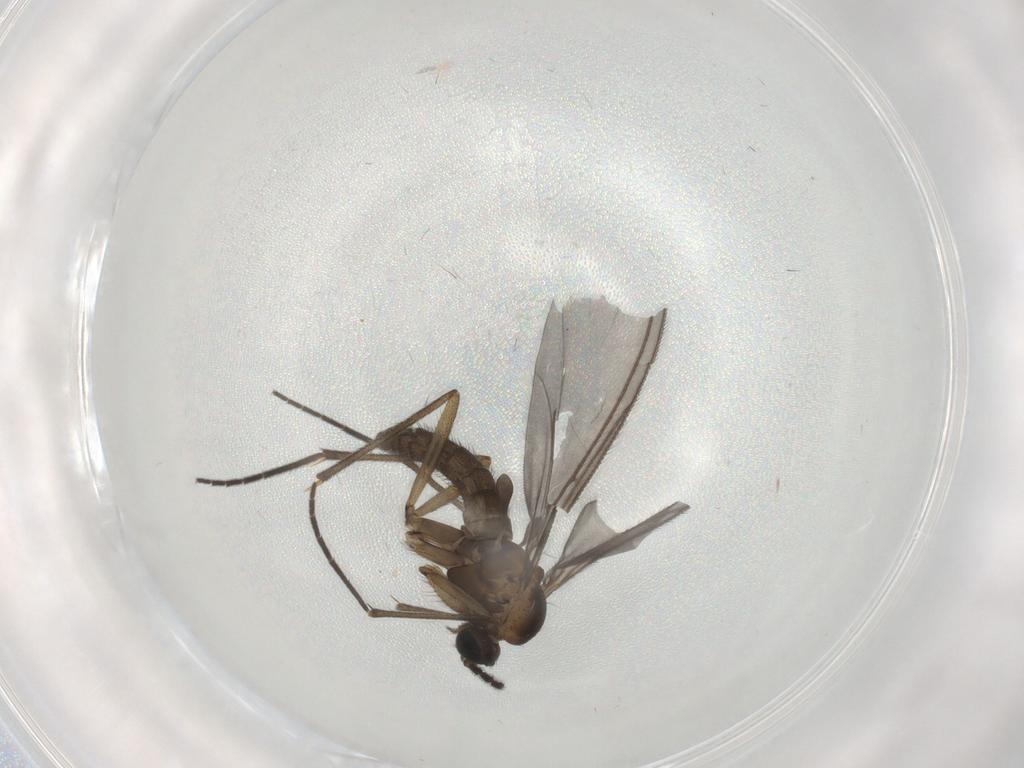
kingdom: Animalia
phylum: Arthropoda
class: Insecta
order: Diptera
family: Sciaridae
